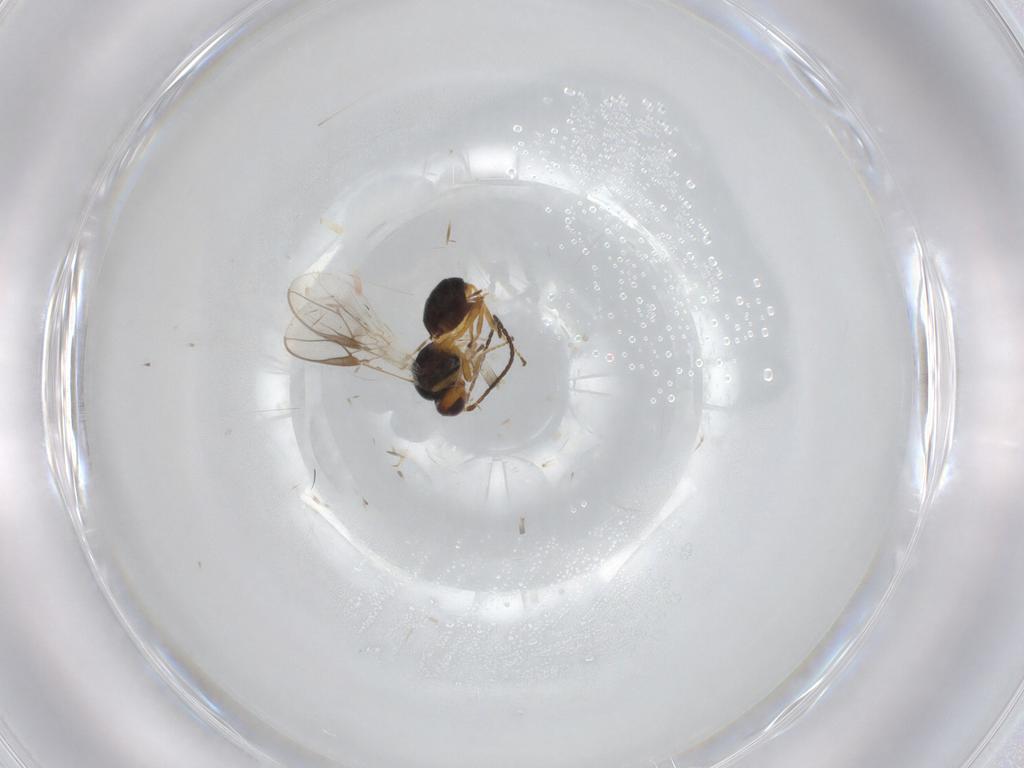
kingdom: Animalia
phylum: Arthropoda
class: Insecta
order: Hymenoptera
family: Braconidae
